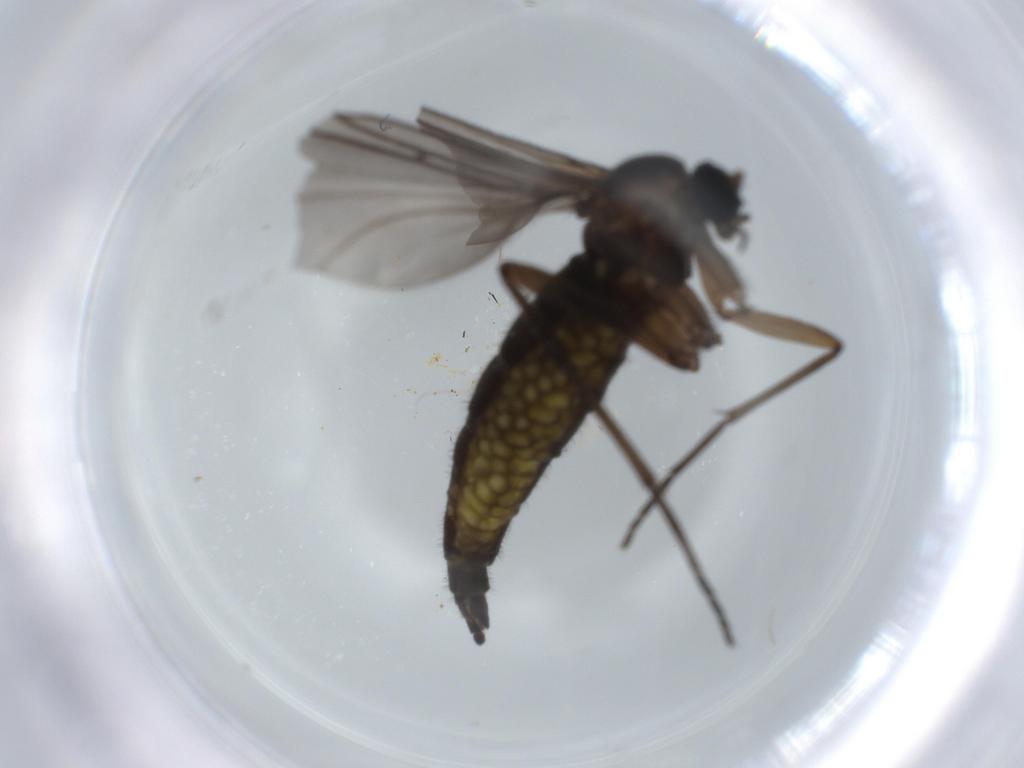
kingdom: Animalia
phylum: Arthropoda
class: Insecta
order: Diptera
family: Sciaridae
